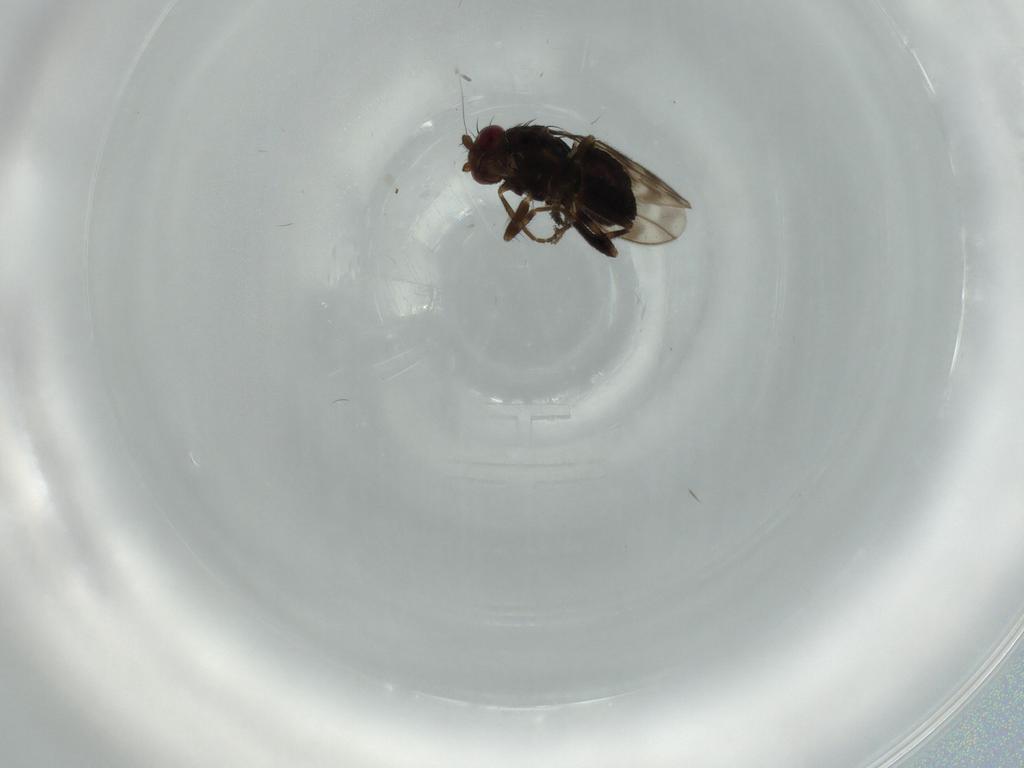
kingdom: Animalia
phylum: Arthropoda
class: Insecta
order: Diptera
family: Sphaeroceridae
